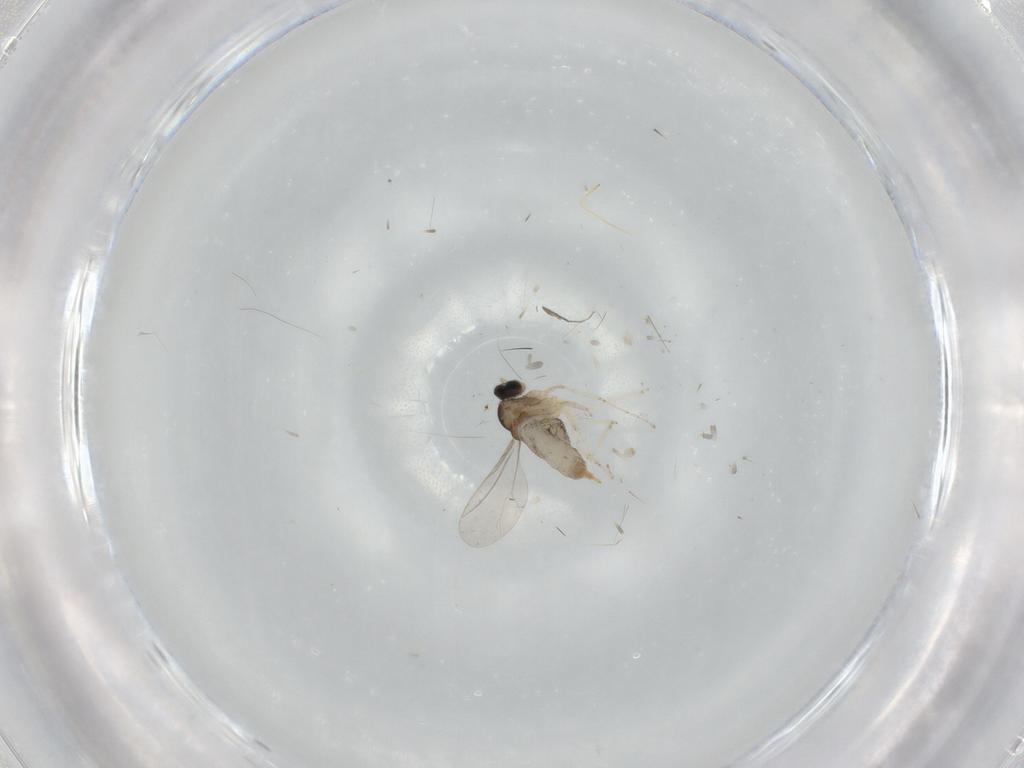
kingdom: Animalia
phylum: Arthropoda
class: Insecta
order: Diptera
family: Cecidomyiidae
